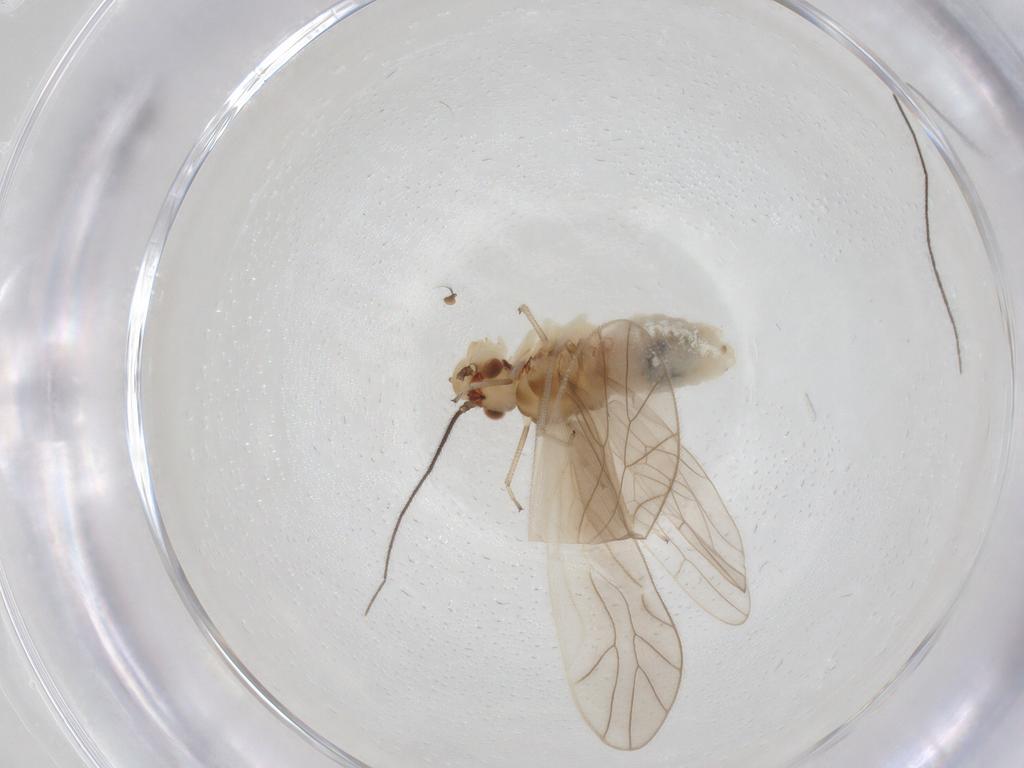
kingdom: Animalia
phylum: Arthropoda
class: Insecta
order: Psocodea
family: Caeciliusidae
